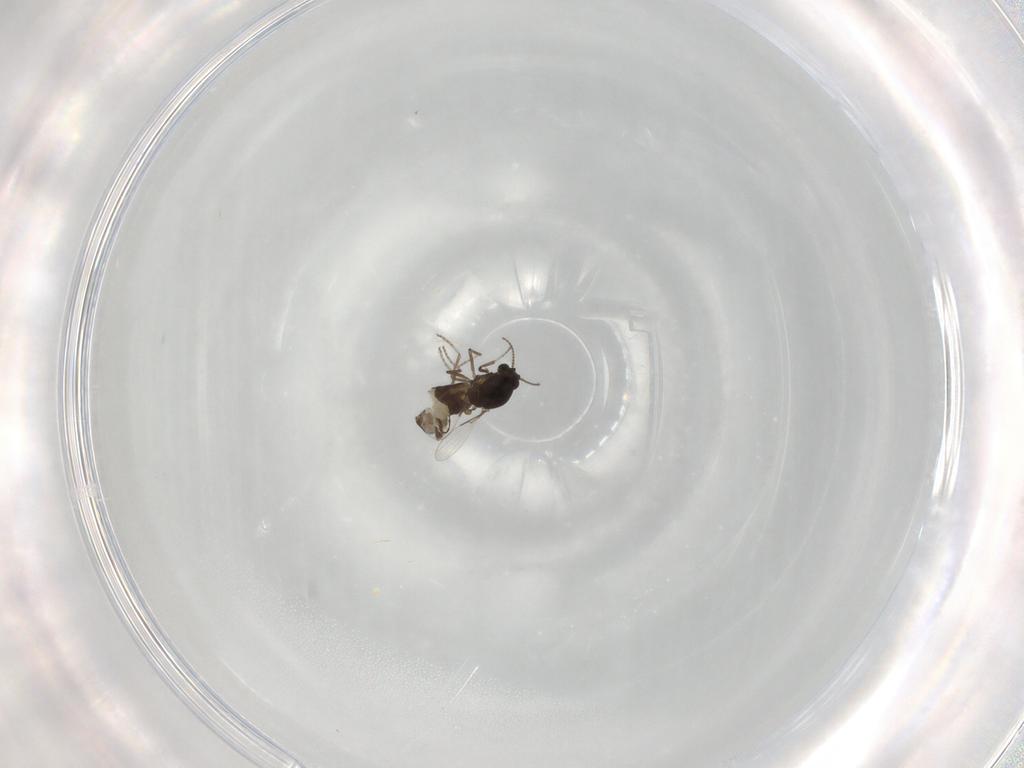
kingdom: Animalia
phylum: Arthropoda
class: Insecta
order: Diptera
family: Ceratopogonidae
